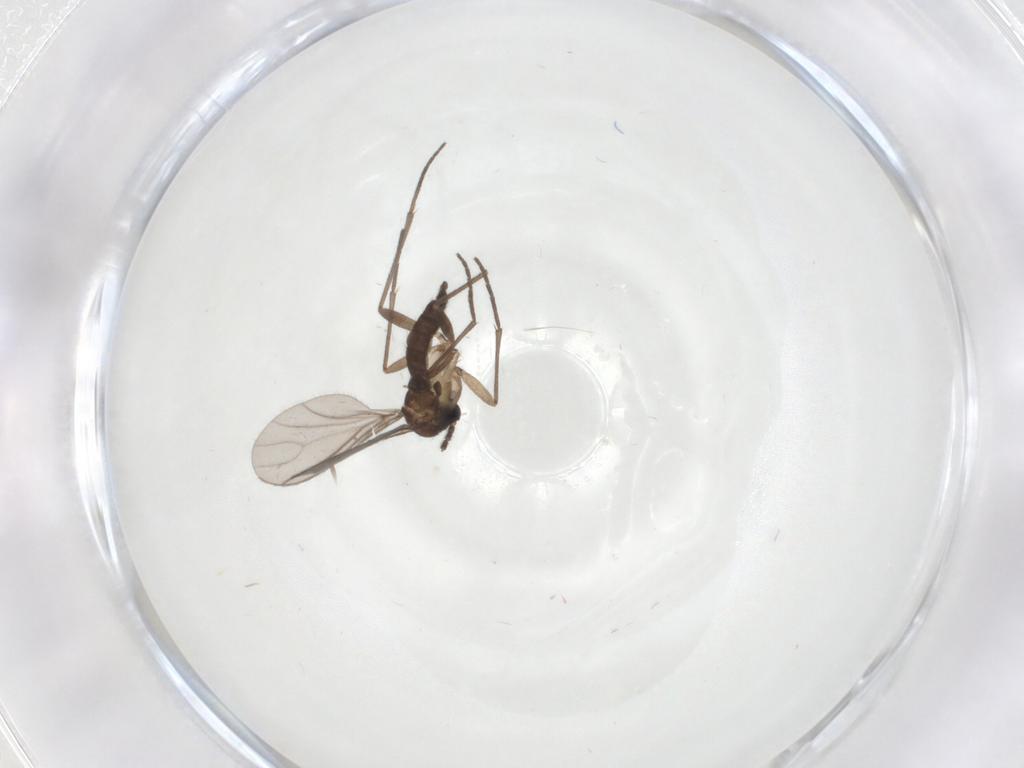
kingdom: Animalia
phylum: Arthropoda
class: Insecta
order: Diptera
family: Sciaridae
